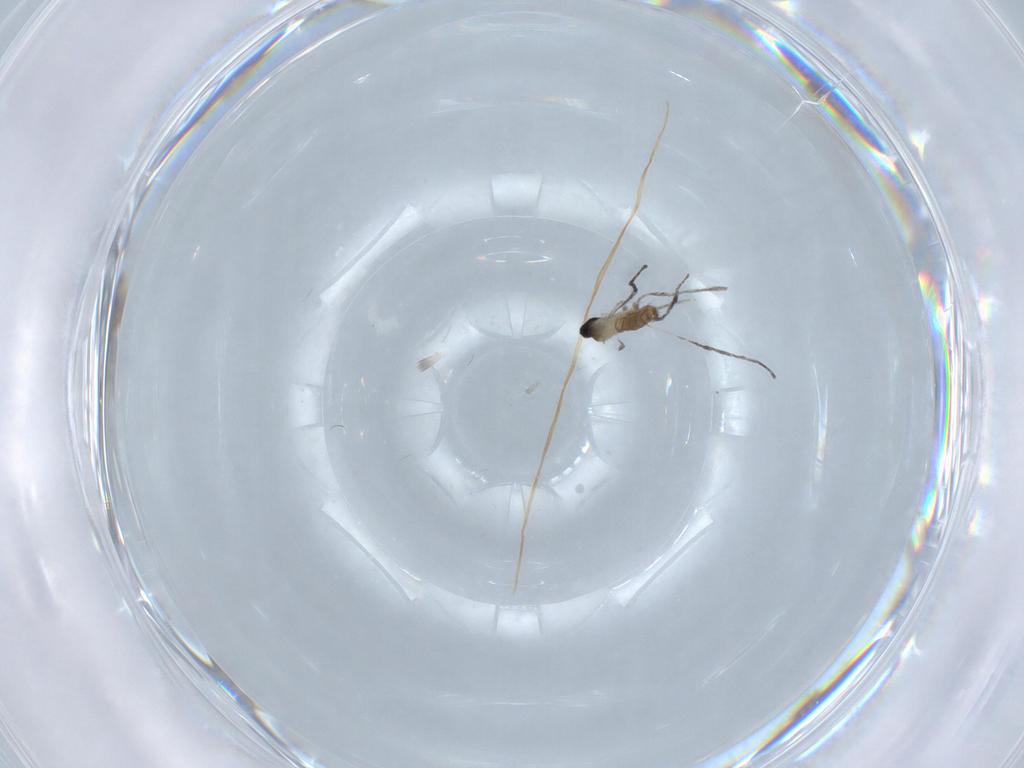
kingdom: Animalia
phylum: Arthropoda
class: Insecta
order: Diptera
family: Cecidomyiidae
